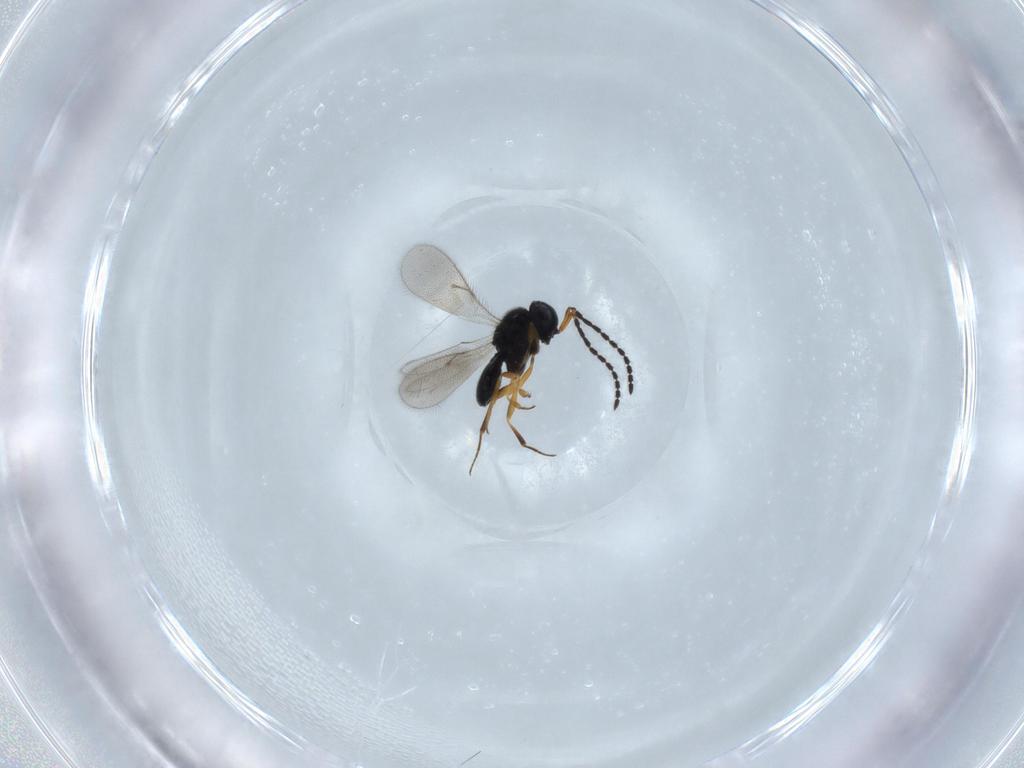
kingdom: Animalia
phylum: Arthropoda
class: Insecta
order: Hymenoptera
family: Scelionidae
